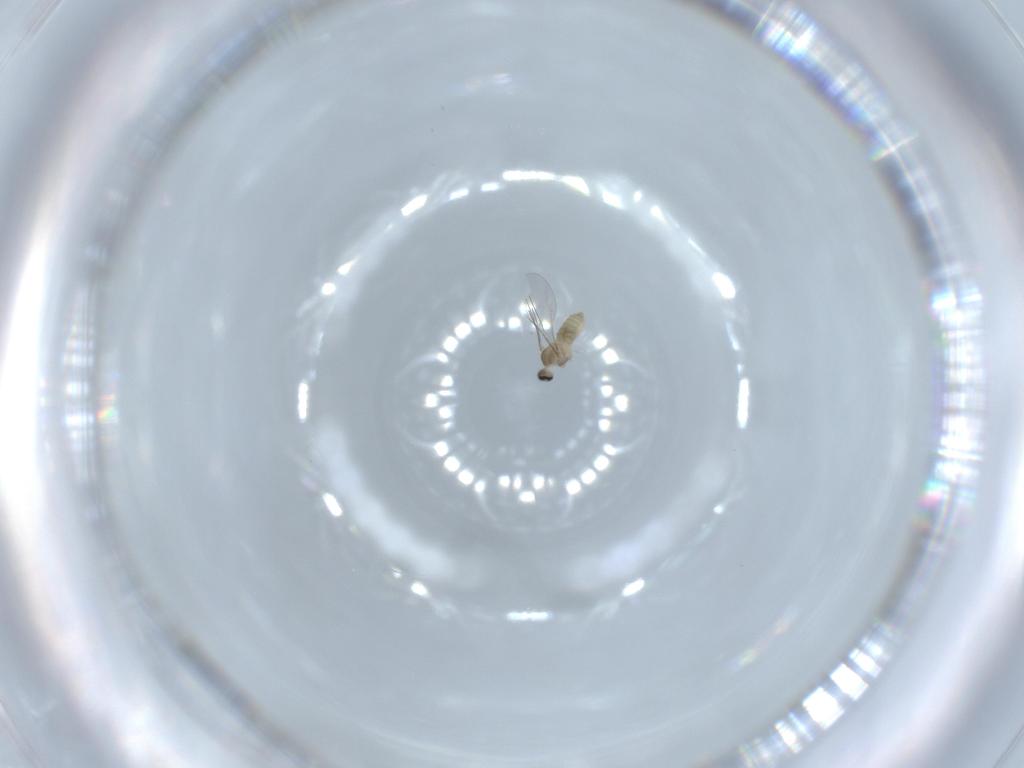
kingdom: Animalia
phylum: Arthropoda
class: Insecta
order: Diptera
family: Cecidomyiidae
